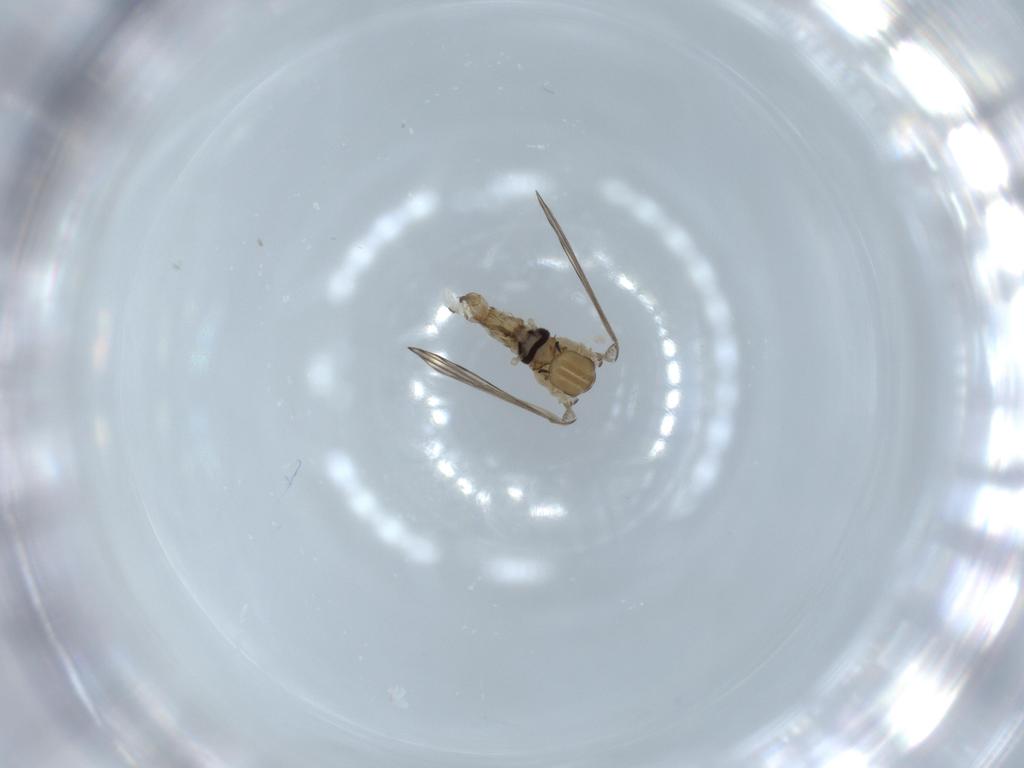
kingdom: Animalia
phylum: Arthropoda
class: Insecta
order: Diptera
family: Psychodidae
